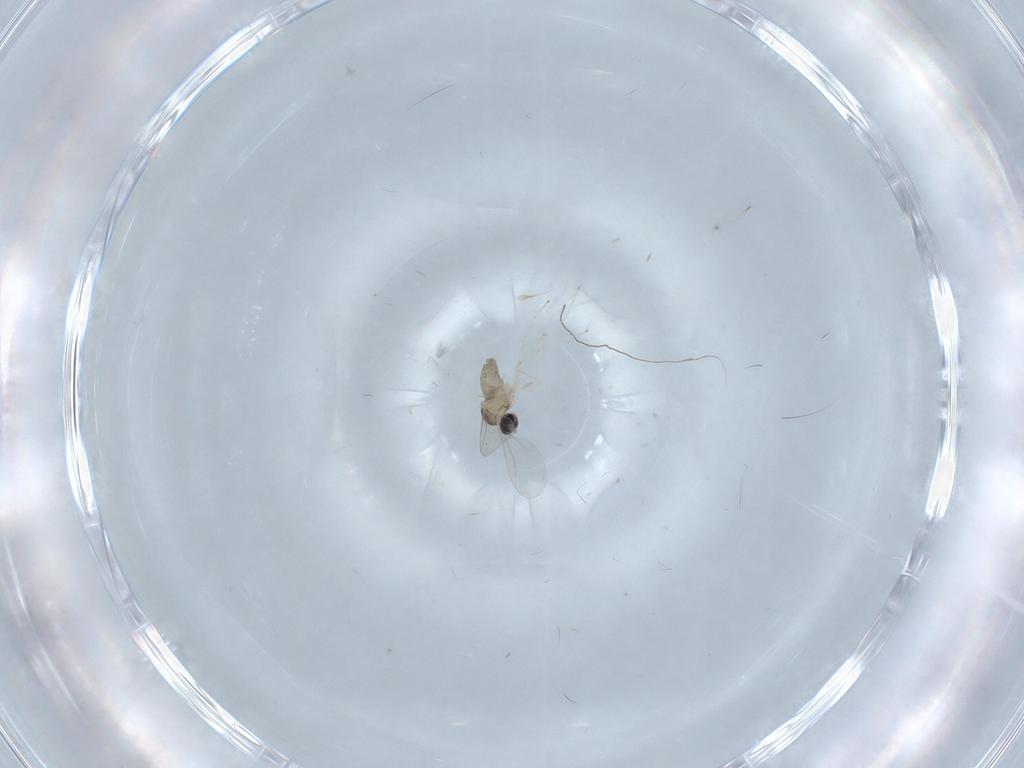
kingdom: Animalia
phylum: Arthropoda
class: Insecta
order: Diptera
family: Cecidomyiidae
